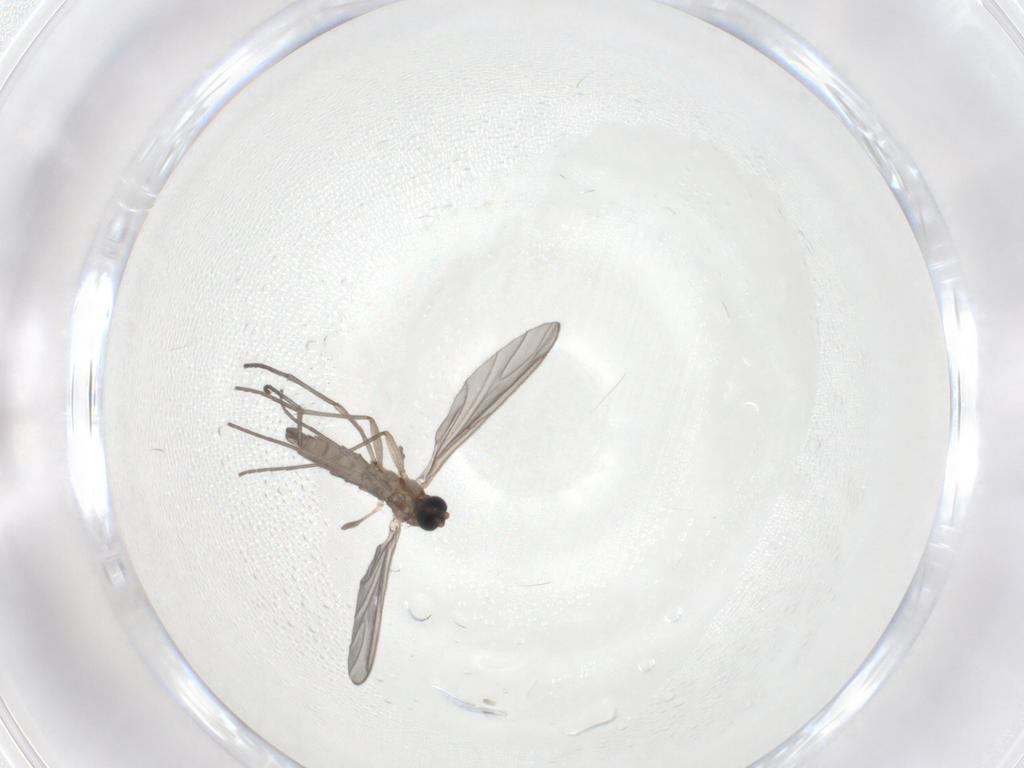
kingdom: Animalia
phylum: Arthropoda
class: Insecta
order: Diptera
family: Sciaridae
